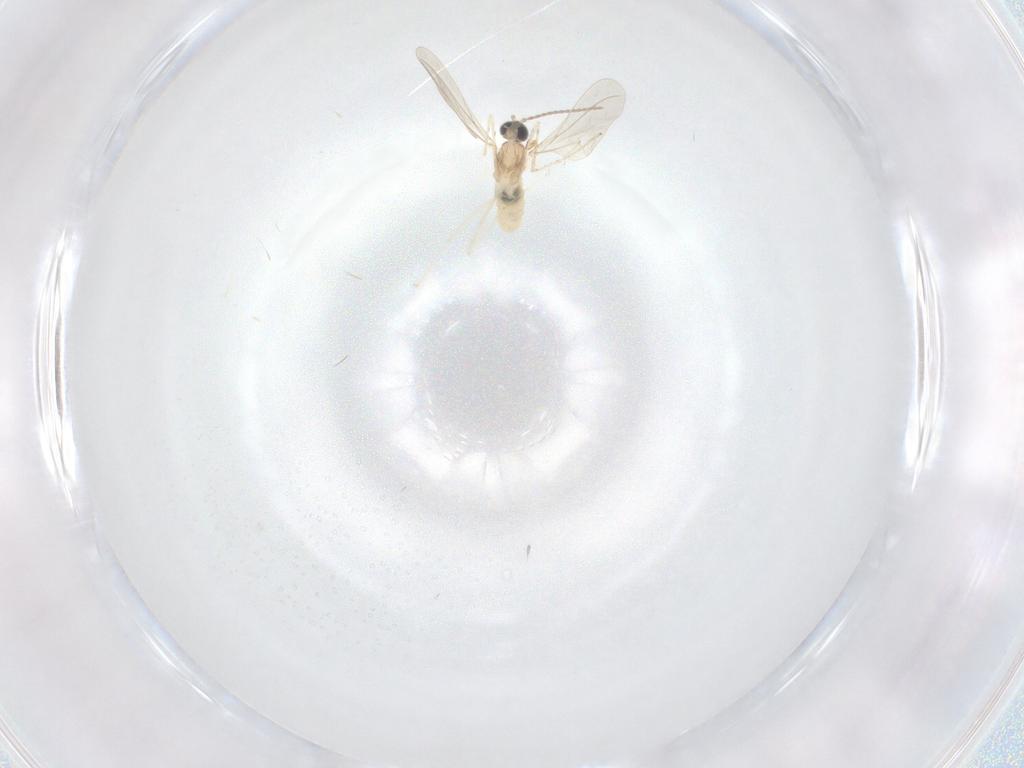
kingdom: Animalia
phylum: Arthropoda
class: Insecta
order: Diptera
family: Cecidomyiidae
